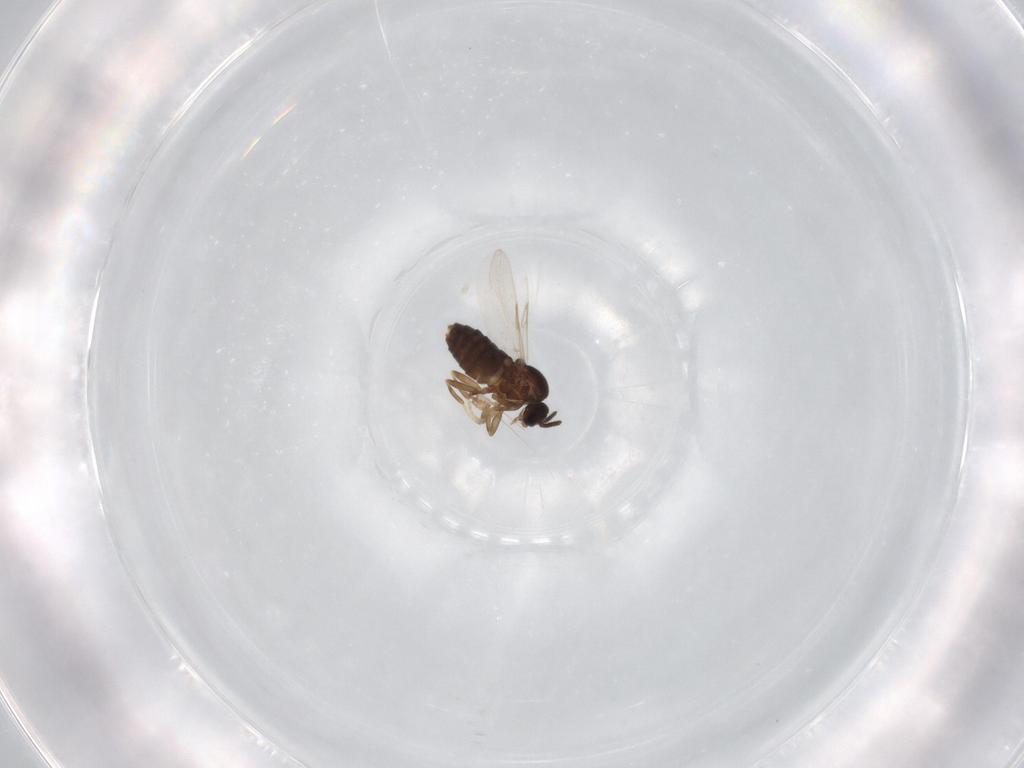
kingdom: Animalia
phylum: Arthropoda
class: Insecta
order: Diptera
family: Scatopsidae
